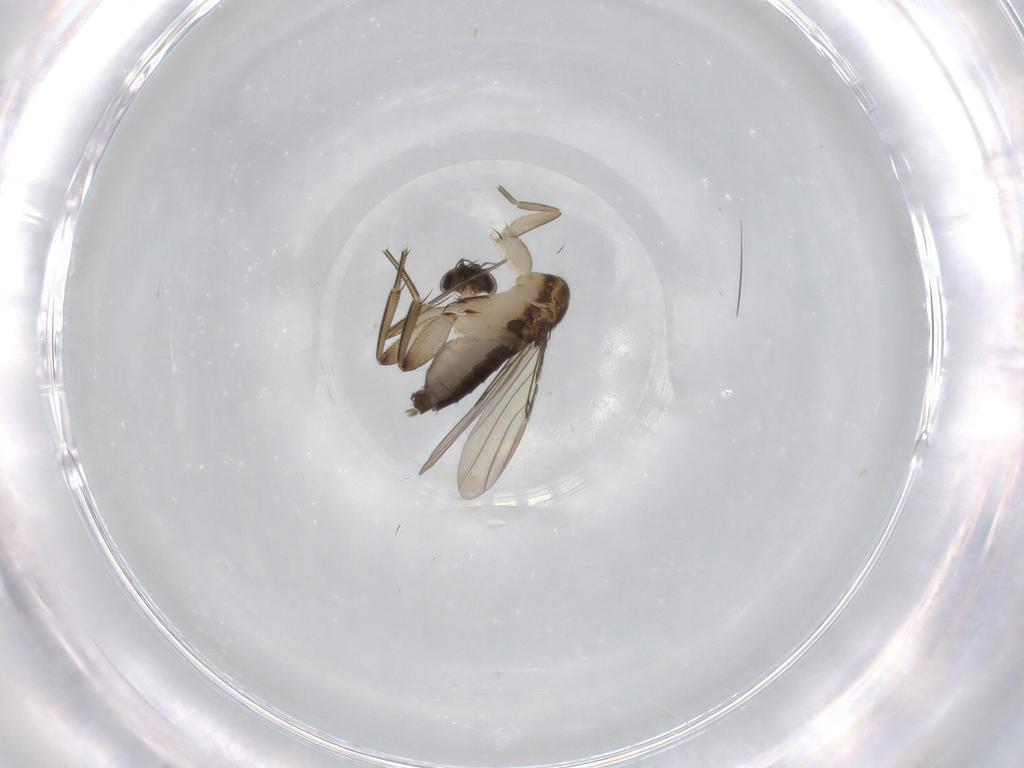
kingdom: Animalia
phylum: Arthropoda
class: Insecta
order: Diptera
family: Phoridae
